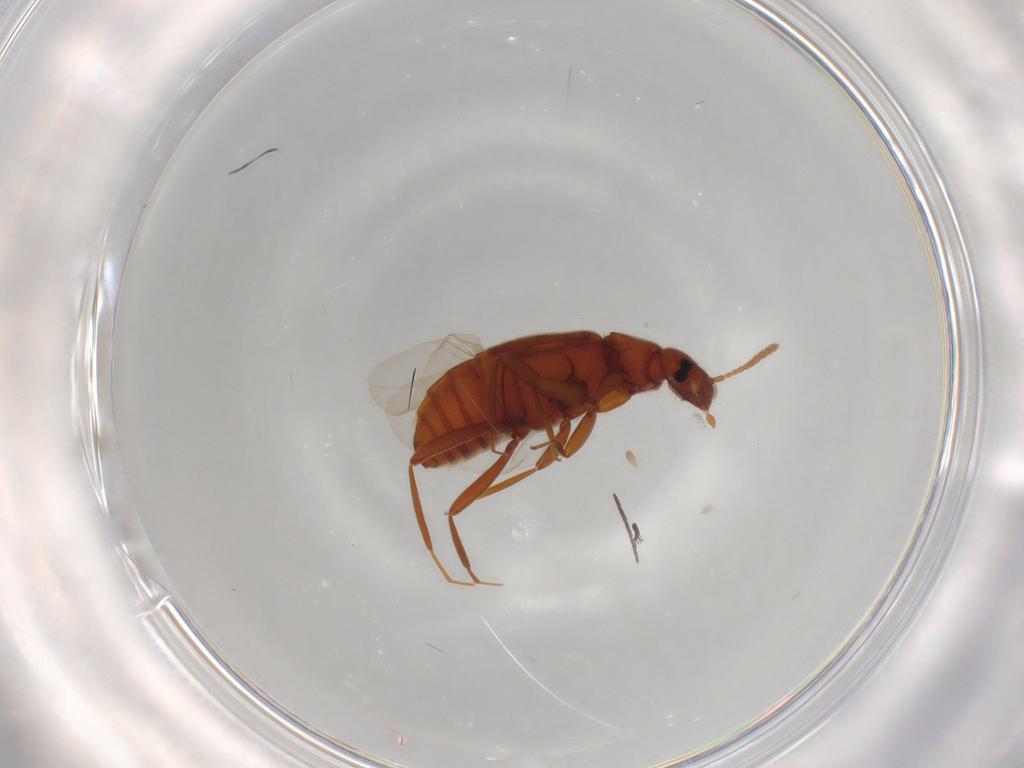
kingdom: Animalia
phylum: Arthropoda
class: Insecta
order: Coleoptera
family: Staphylinidae
